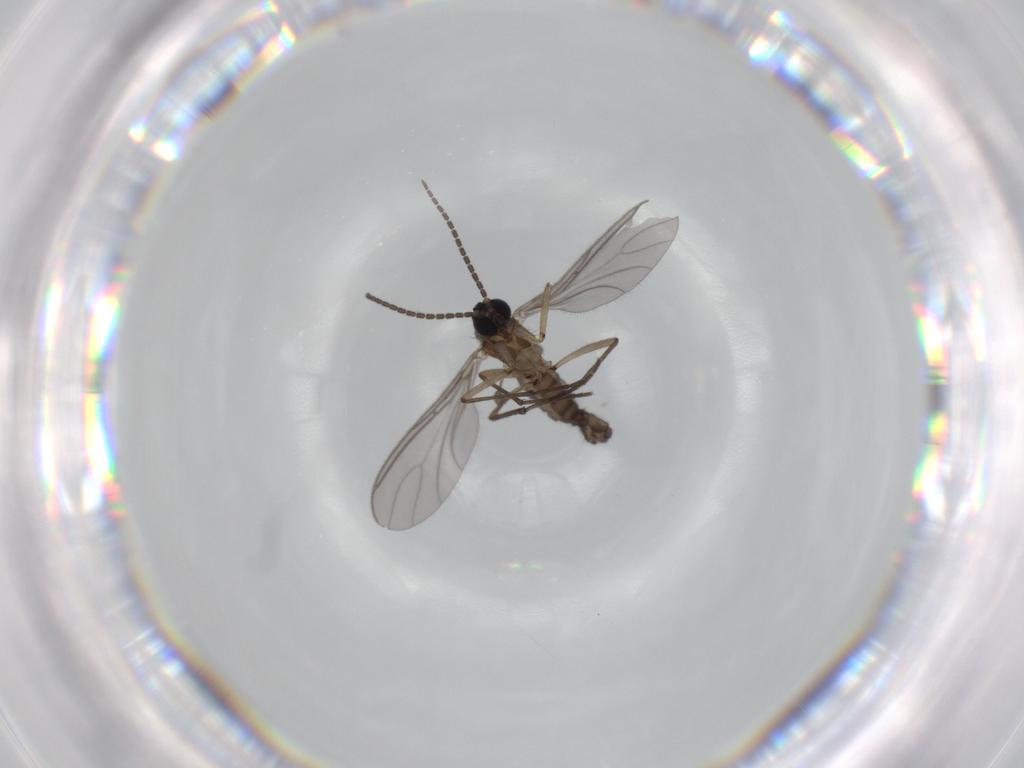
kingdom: Animalia
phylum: Arthropoda
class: Insecta
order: Diptera
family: Sciaridae
